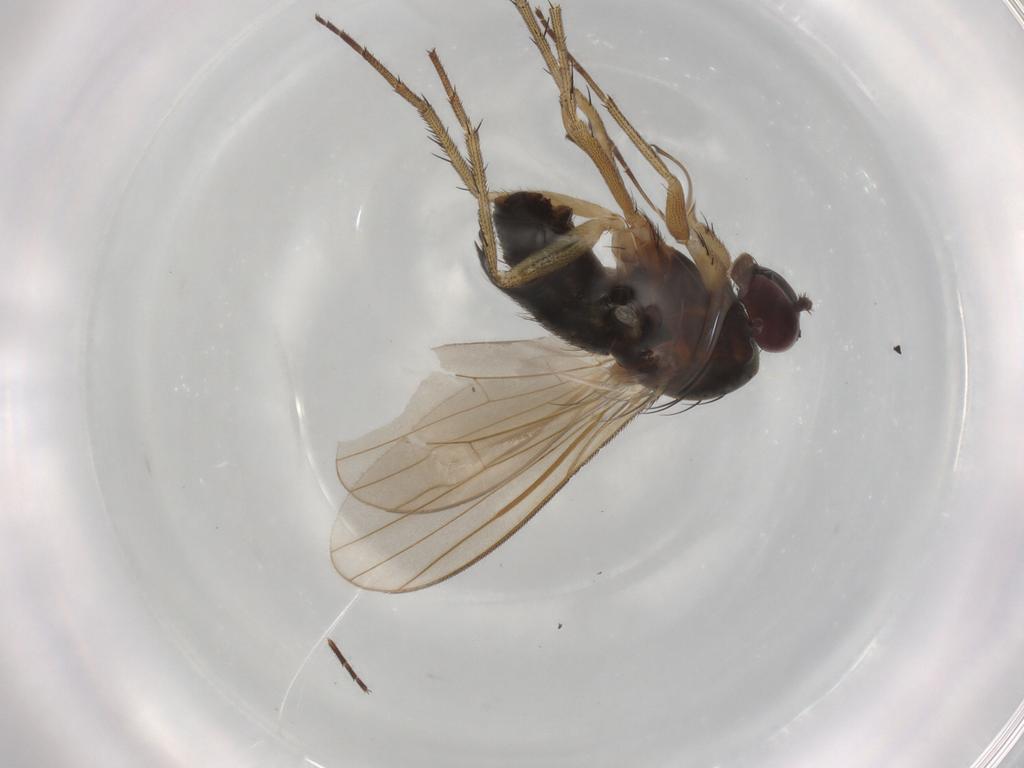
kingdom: Animalia
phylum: Arthropoda
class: Insecta
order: Diptera
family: Dolichopodidae
